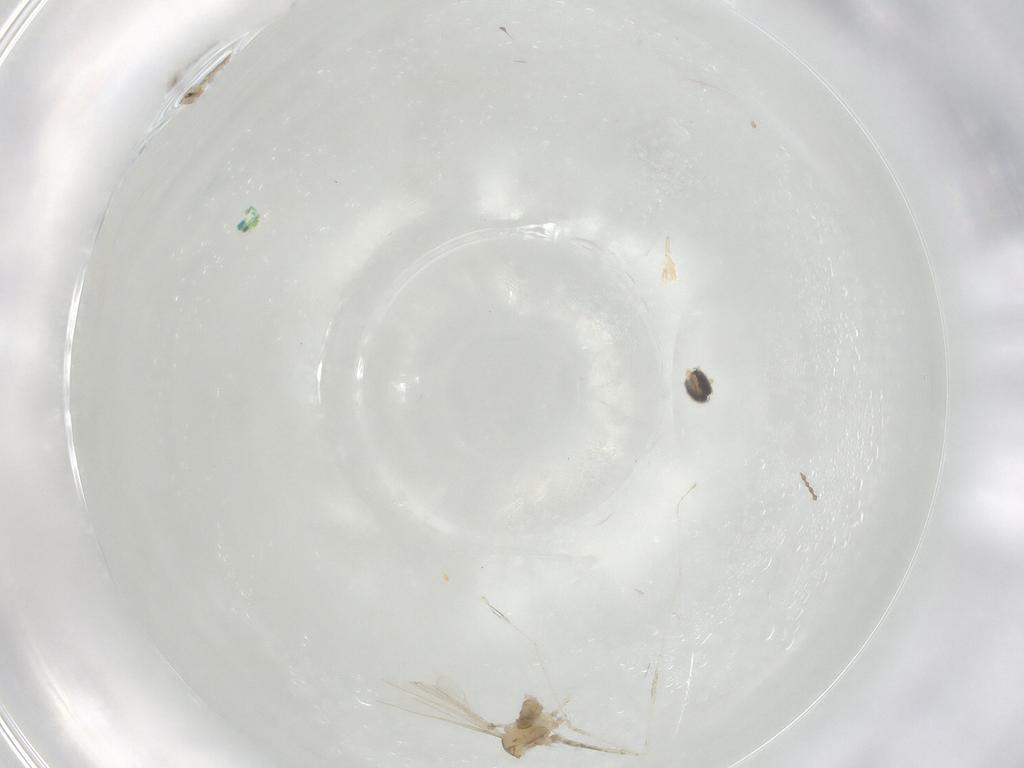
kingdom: Animalia
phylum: Arthropoda
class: Insecta
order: Diptera
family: Cecidomyiidae
